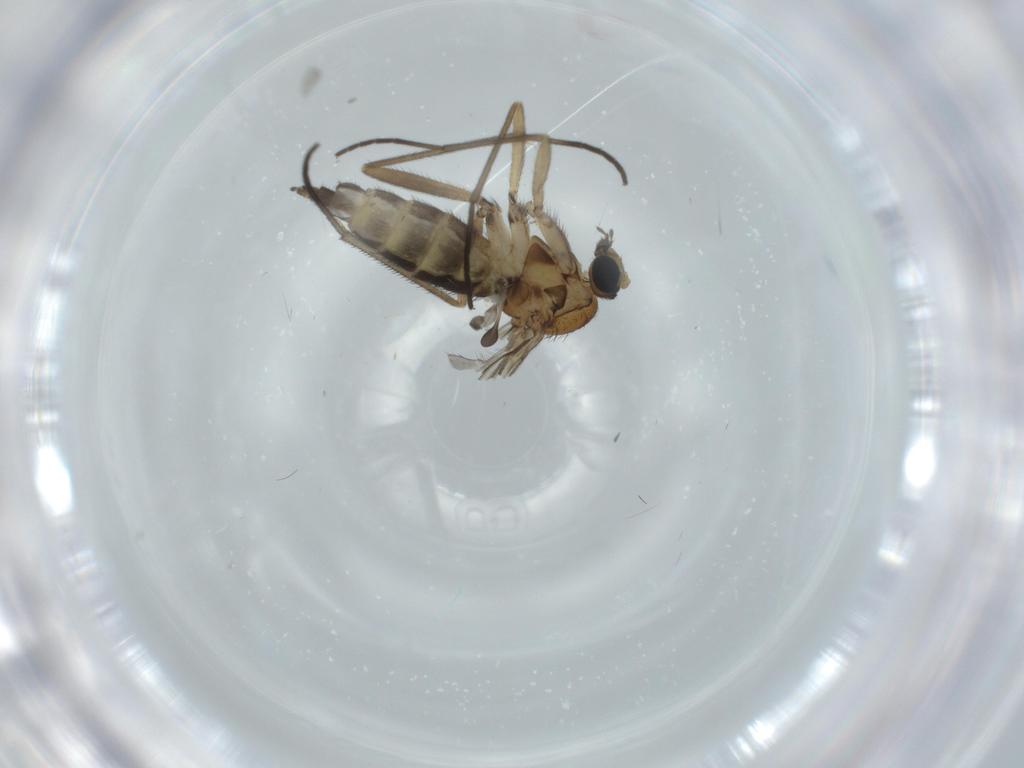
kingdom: Animalia
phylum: Arthropoda
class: Insecta
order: Diptera
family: Sciaridae
